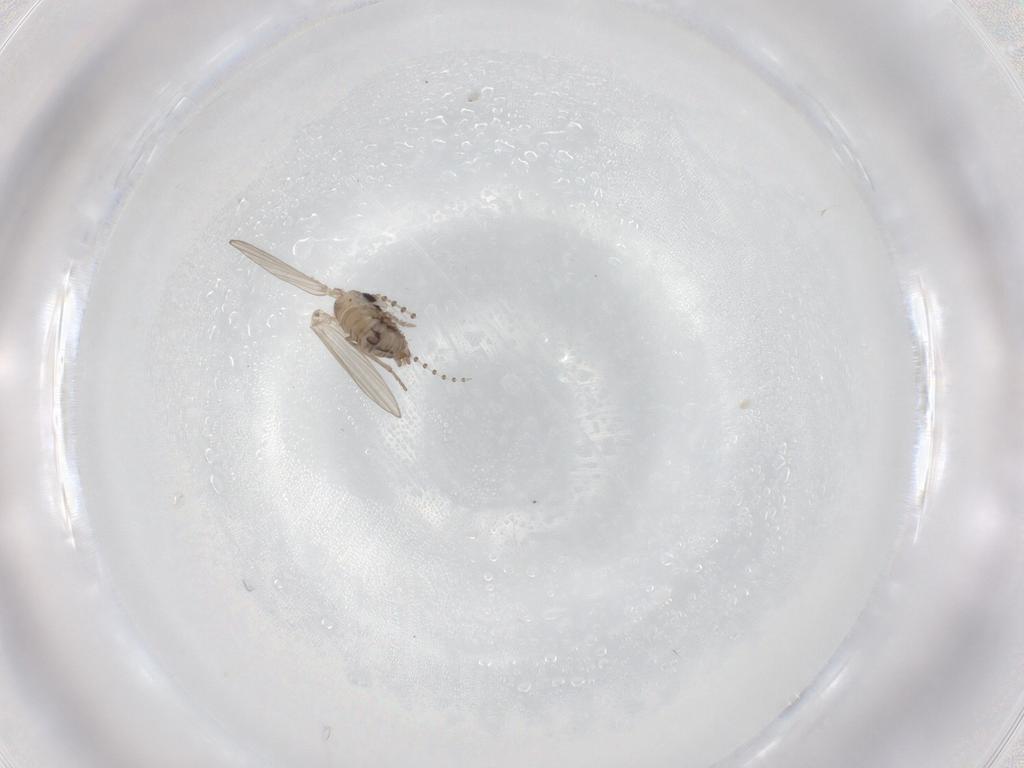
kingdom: Animalia
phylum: Arthropoda
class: Insecta
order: Diptera
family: Psychodidae
